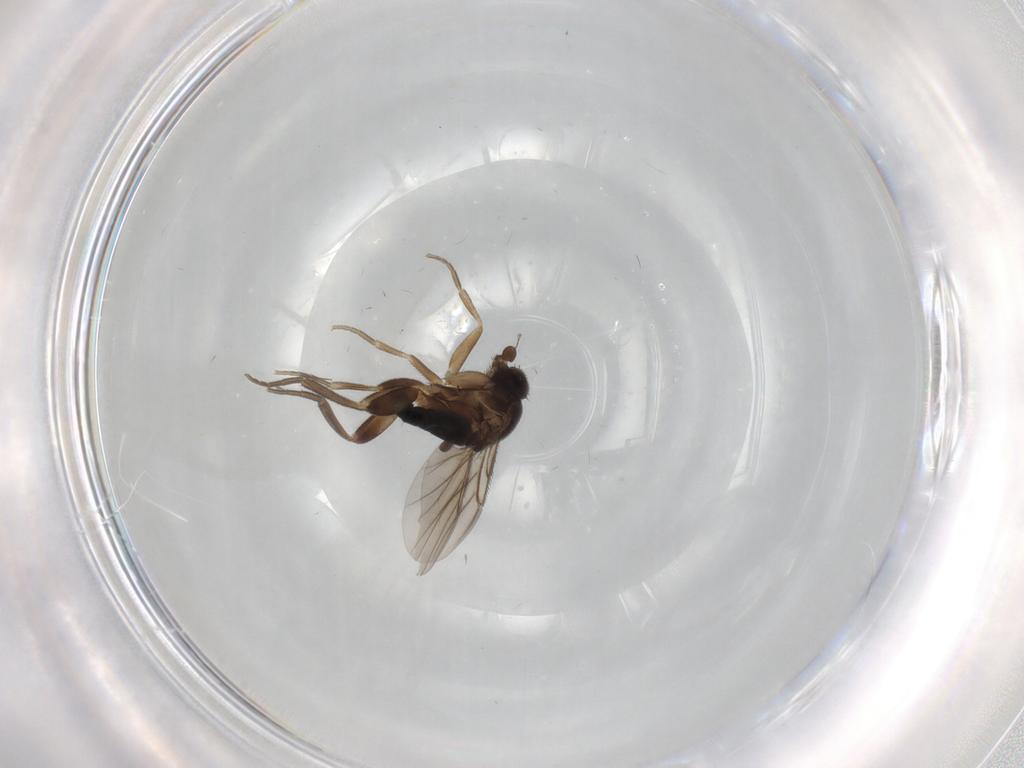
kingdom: Animalia
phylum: Arthropoda
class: Insecta
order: Diptera
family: Phoridae
